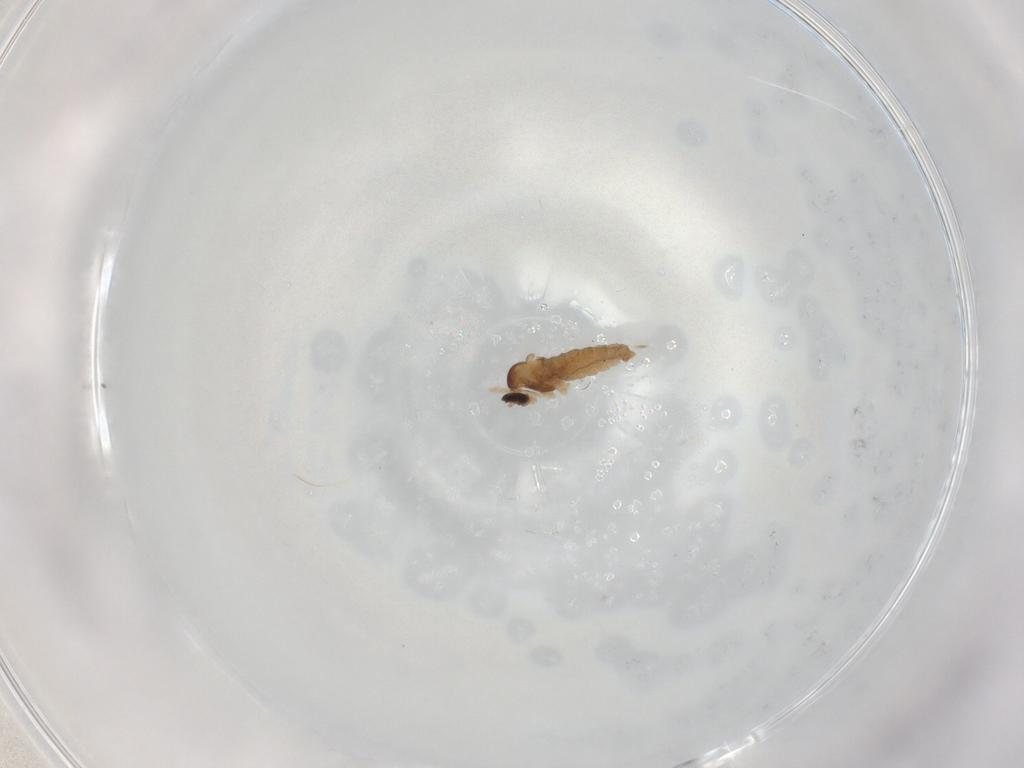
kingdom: Animalia
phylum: Arthropoda
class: Insecta
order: Diptera
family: Cecidomyiidae
